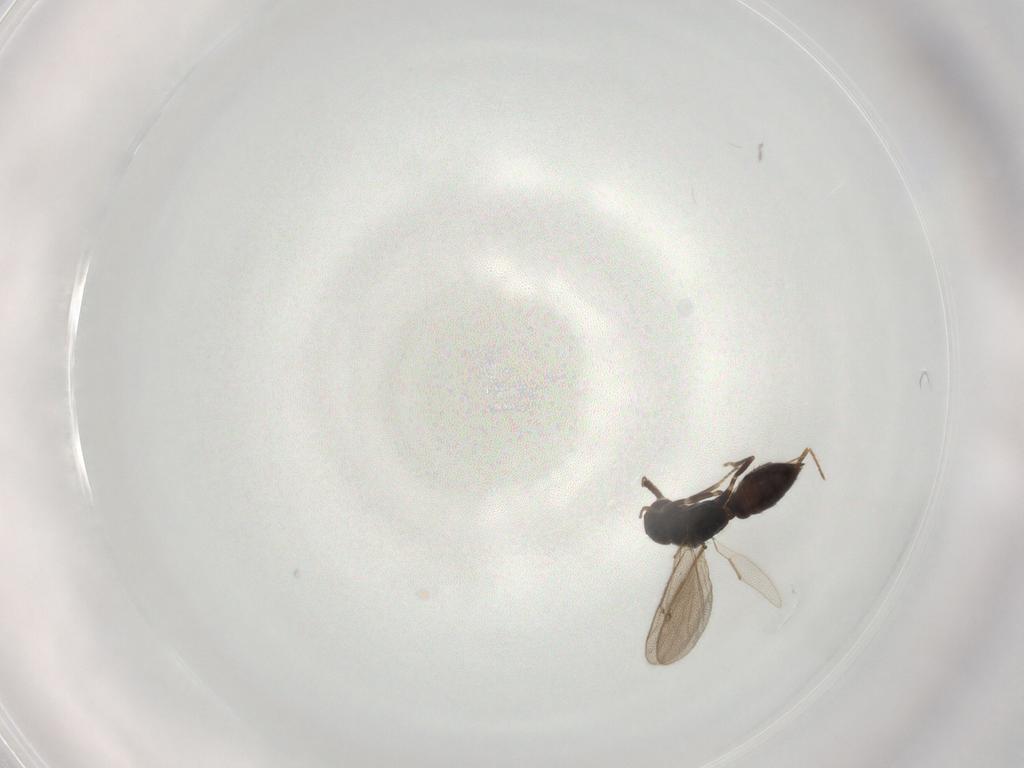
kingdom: Animalia
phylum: Arthropoda
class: Insecta
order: Hymenoptera
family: Tetracampidae
